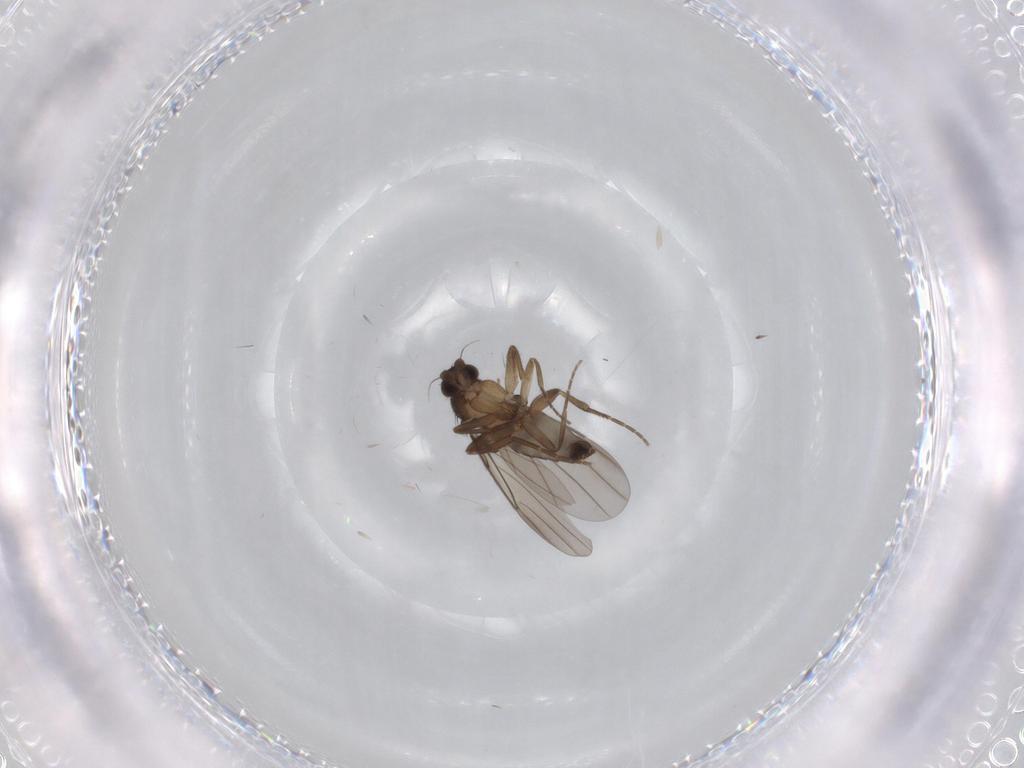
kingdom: Animalia
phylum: Arthropoda
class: Insecta
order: Diptera
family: Cecidomyiidae
